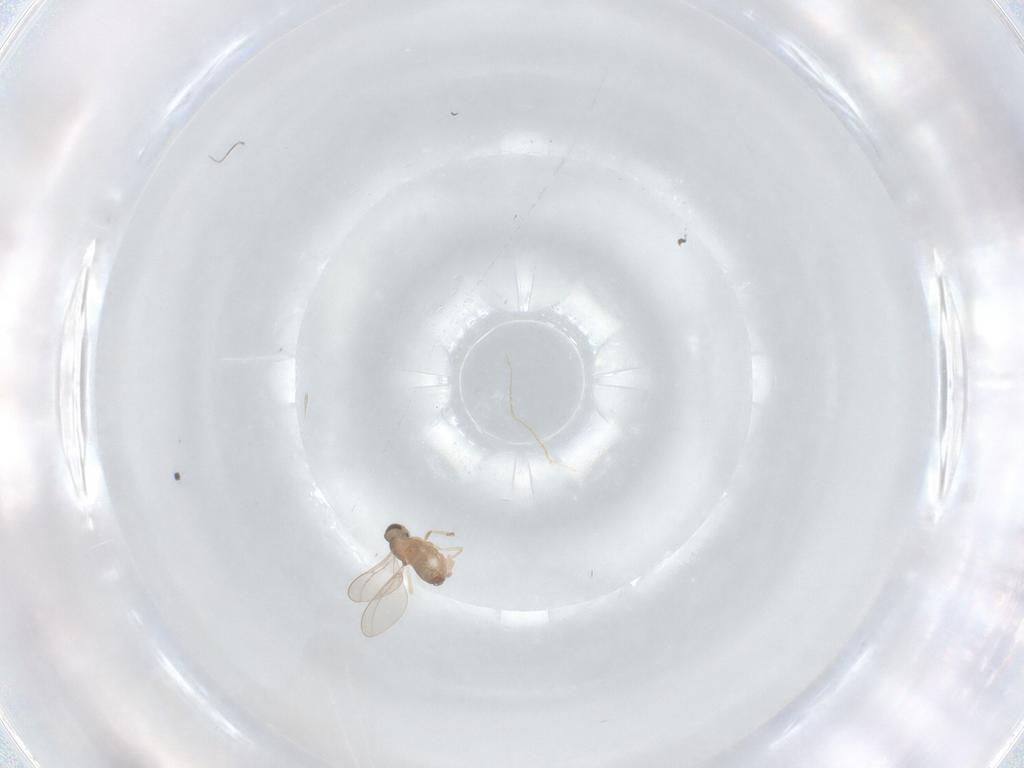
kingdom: Animalia
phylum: Arthropoda
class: Insecta
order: Diptera
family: Cecidomyiidae
